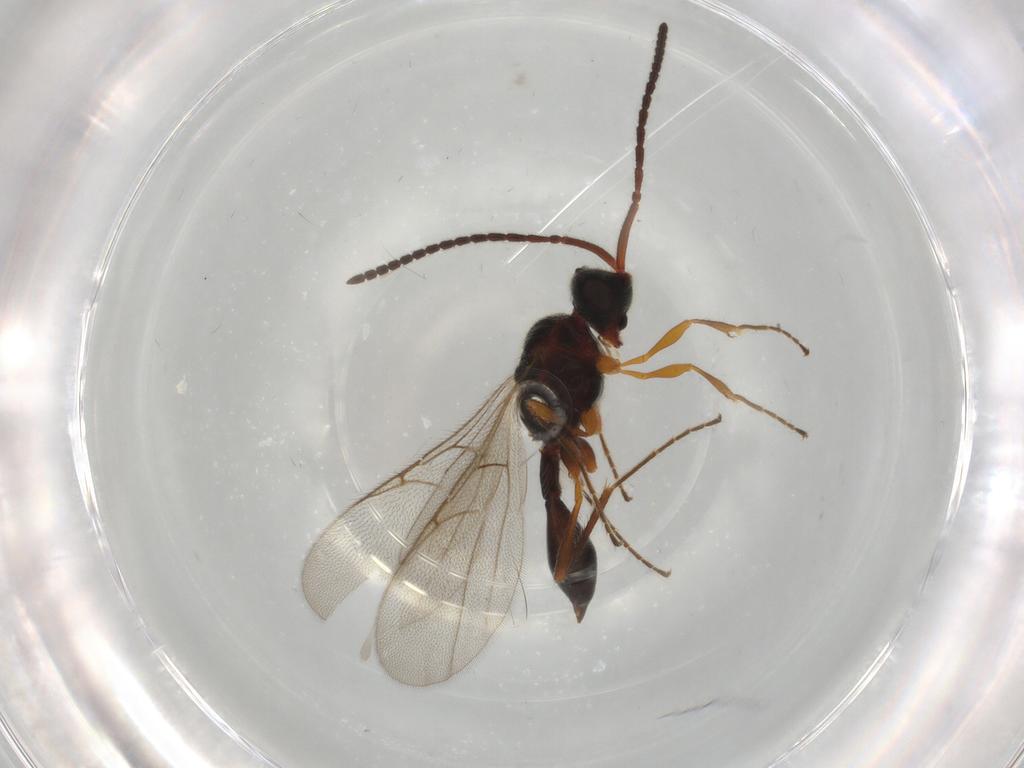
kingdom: Animalia
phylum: Arthropoda
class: Insecta
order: Hymenoptera
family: Diapriidae
